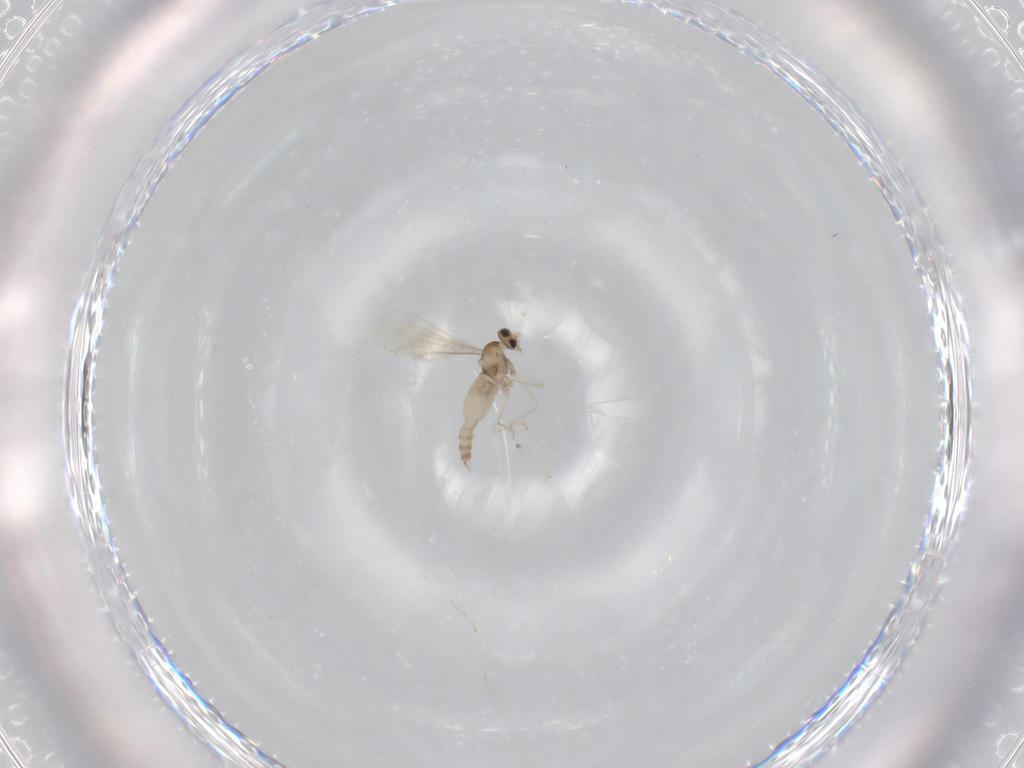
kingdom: Animalia
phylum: Arthropoda
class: Insecta
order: Diptera
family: Cecidomyiidae
